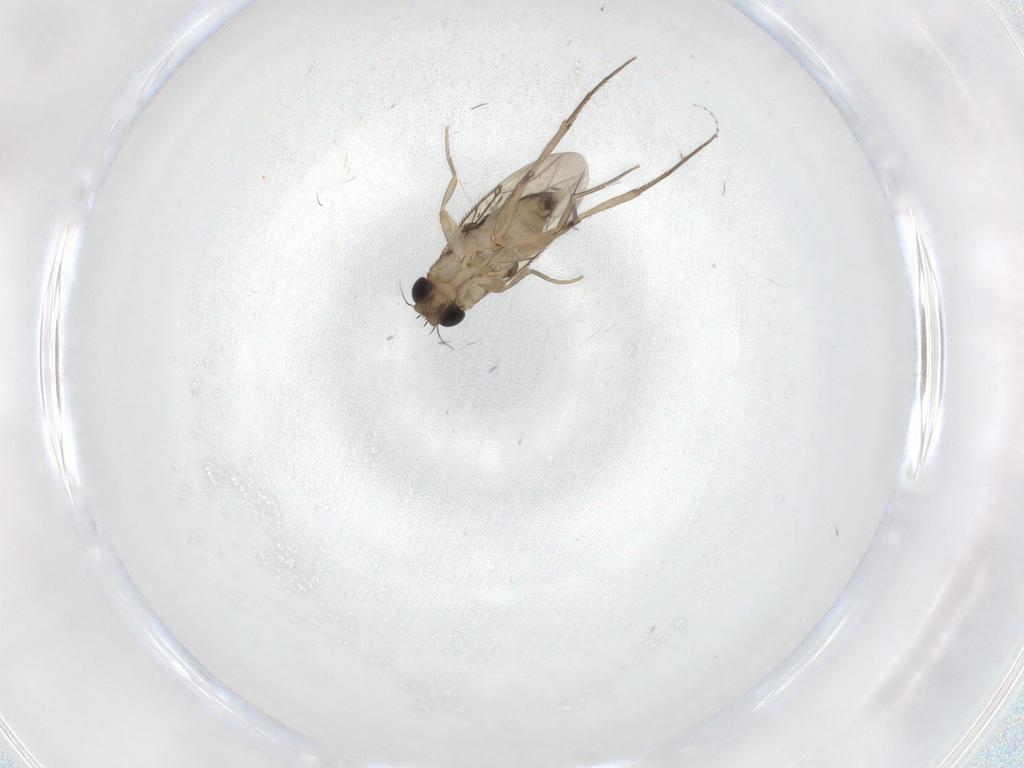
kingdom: Animalia
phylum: Arthropoda
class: Insecta
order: Diptera
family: Phoridae
